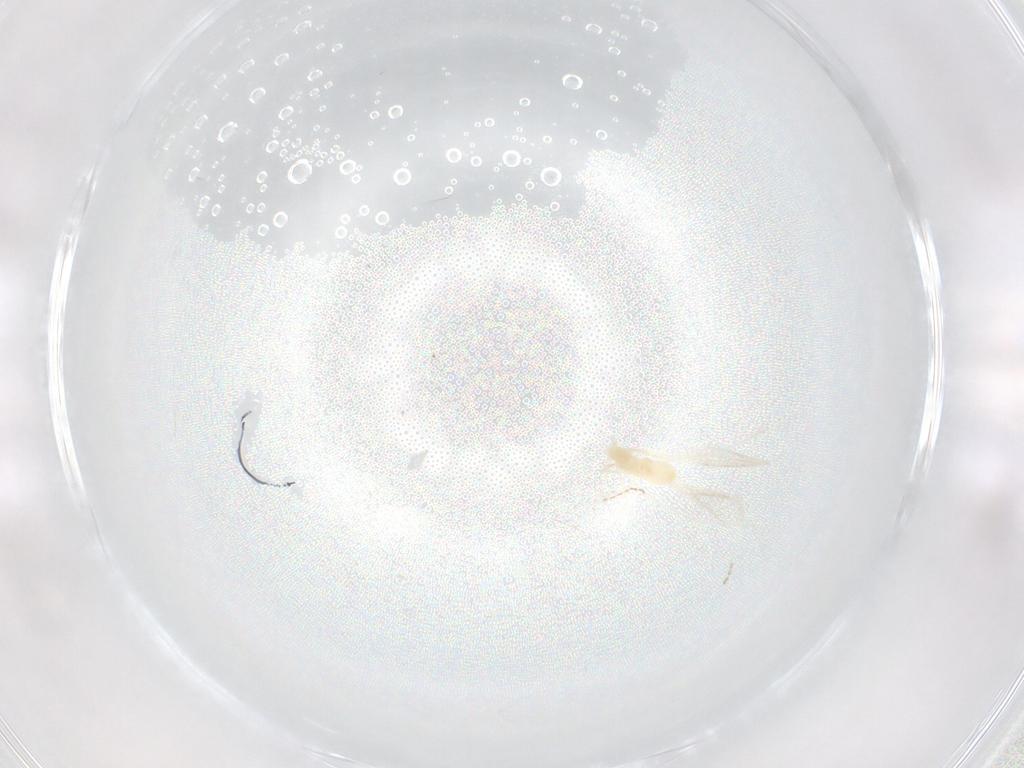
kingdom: Animalia
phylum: Arthropoda
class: Insecta
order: Diptera
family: Cecidomyiidae
